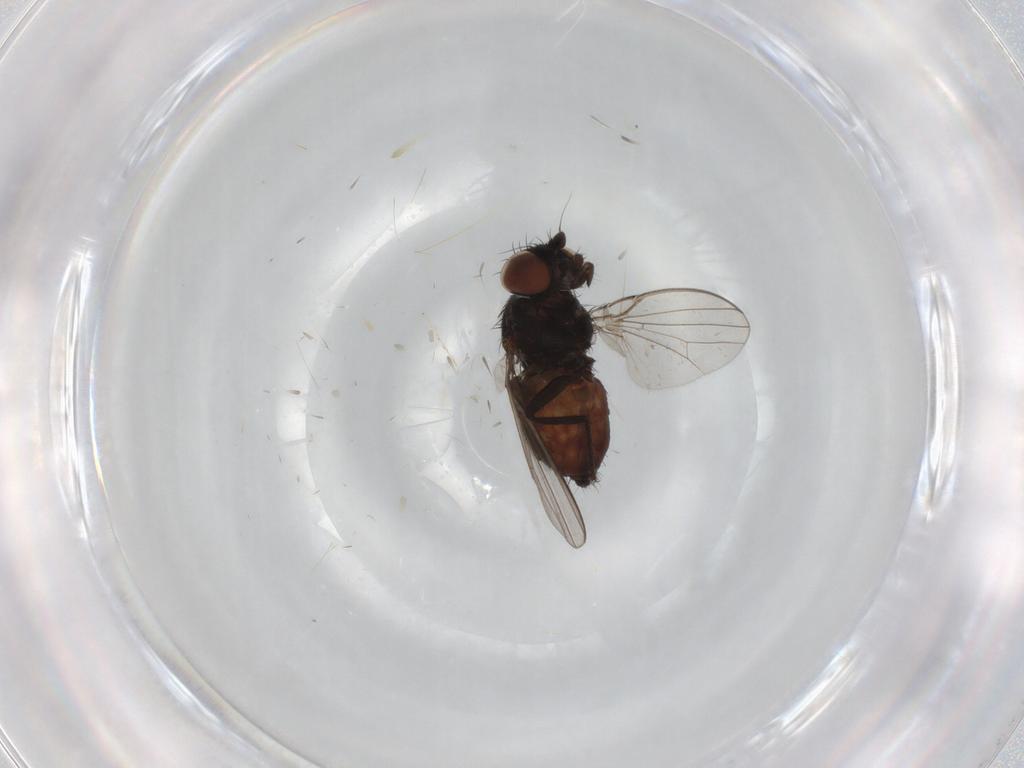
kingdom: Animalia
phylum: Arthropoda
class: Insecta
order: Diptera
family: Milichiidae
